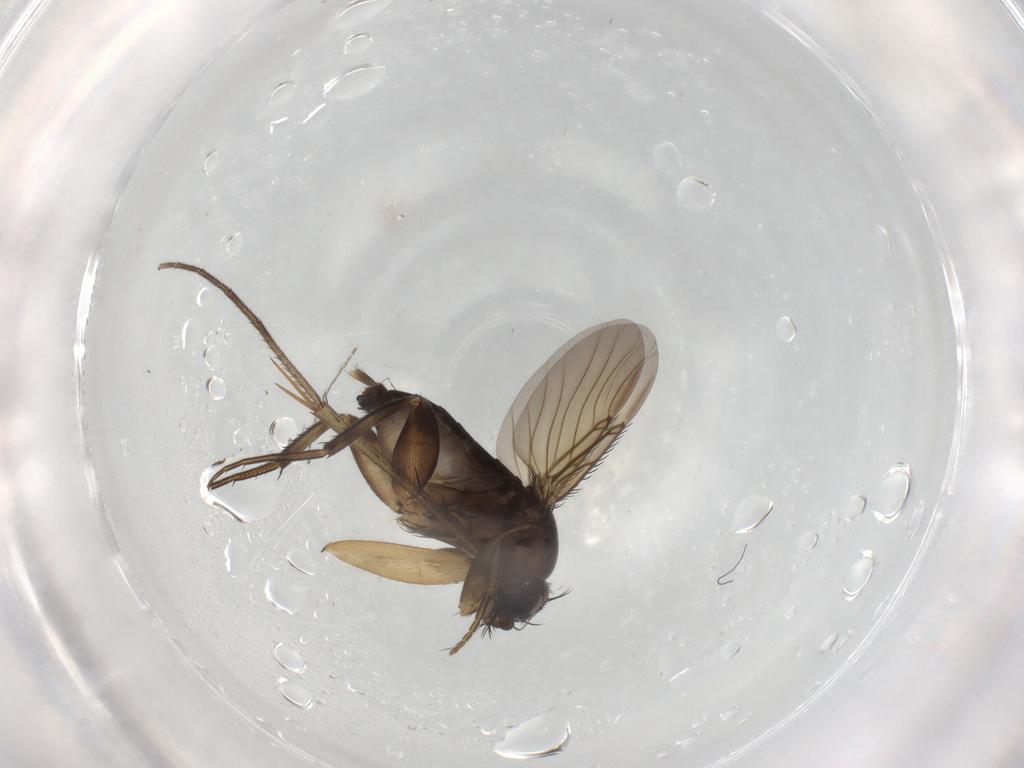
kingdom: Animalia
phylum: Arthropoda
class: Insecta
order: Diptera
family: Phoridae
